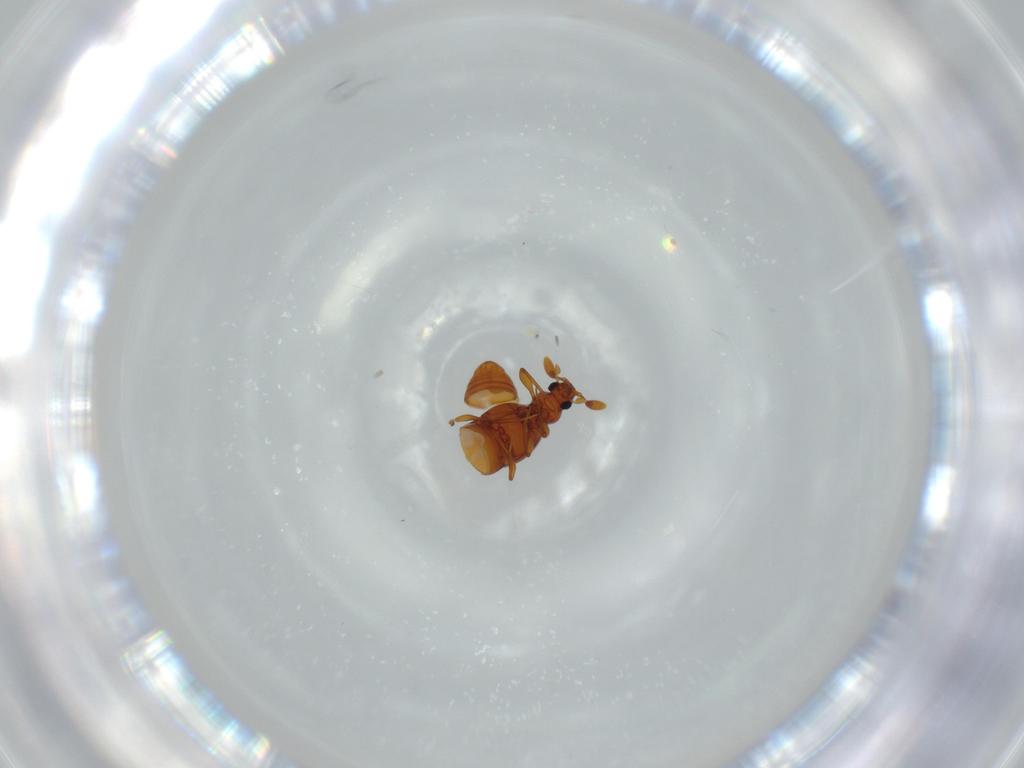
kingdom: Animalia
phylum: Arthropoda
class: Insecta
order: Coleoptera
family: Staphylinidae
